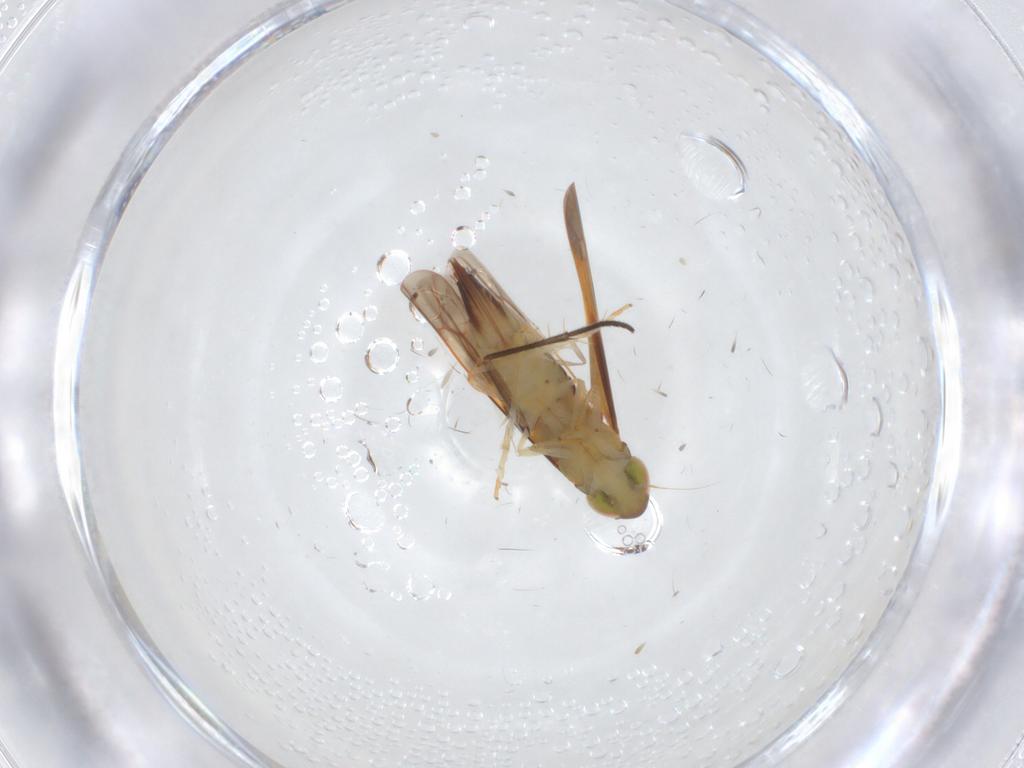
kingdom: Animalia
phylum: Arthropoda
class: Insecta
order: Hemiptera
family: Cicadellidae
